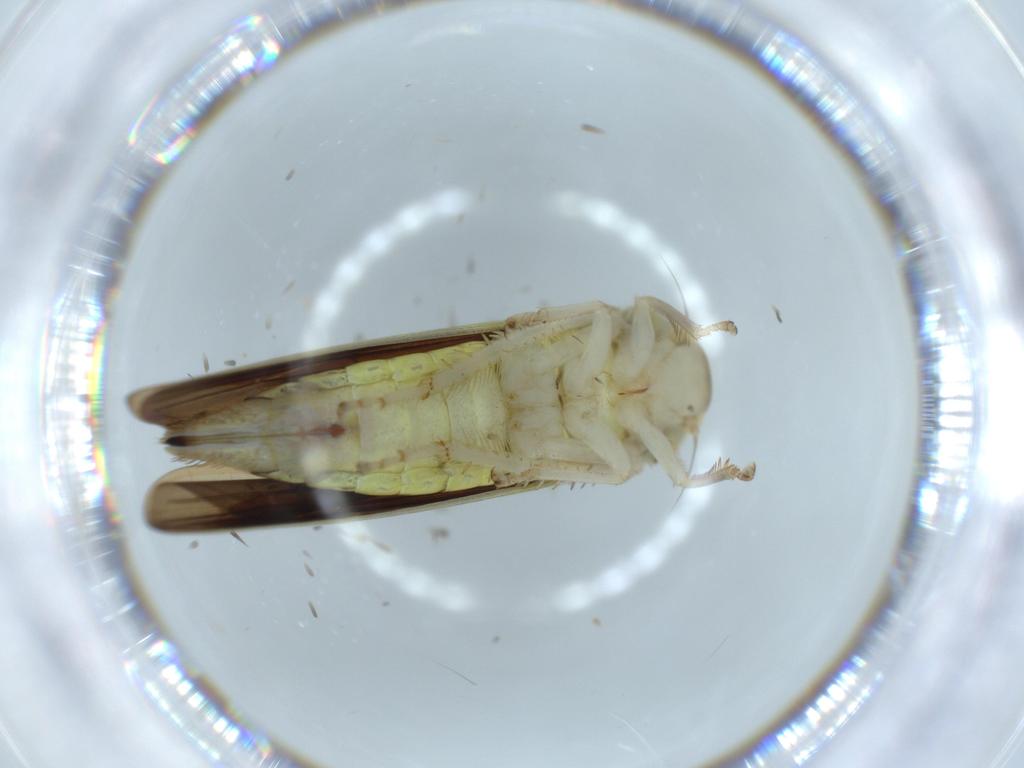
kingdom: Animalia
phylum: Arthropoda
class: Insecta
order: Hemiptera
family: Cicadellidae
